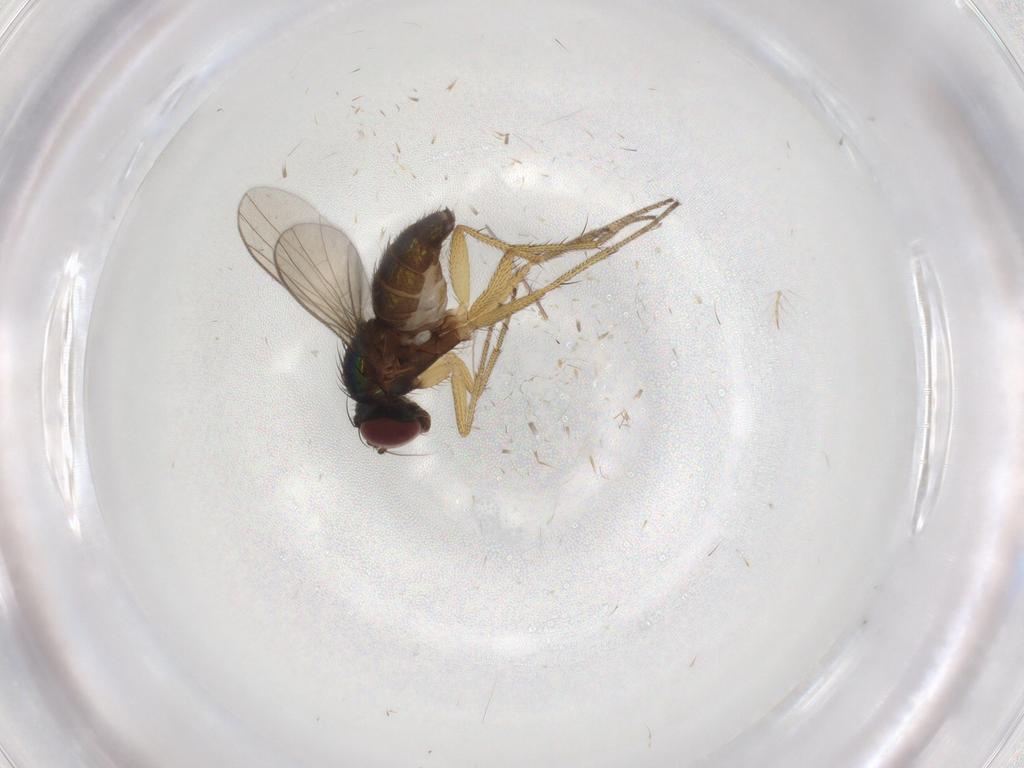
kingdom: Animalia
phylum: Arthropoda
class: Insecta
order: Diptera
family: Chironomidae
